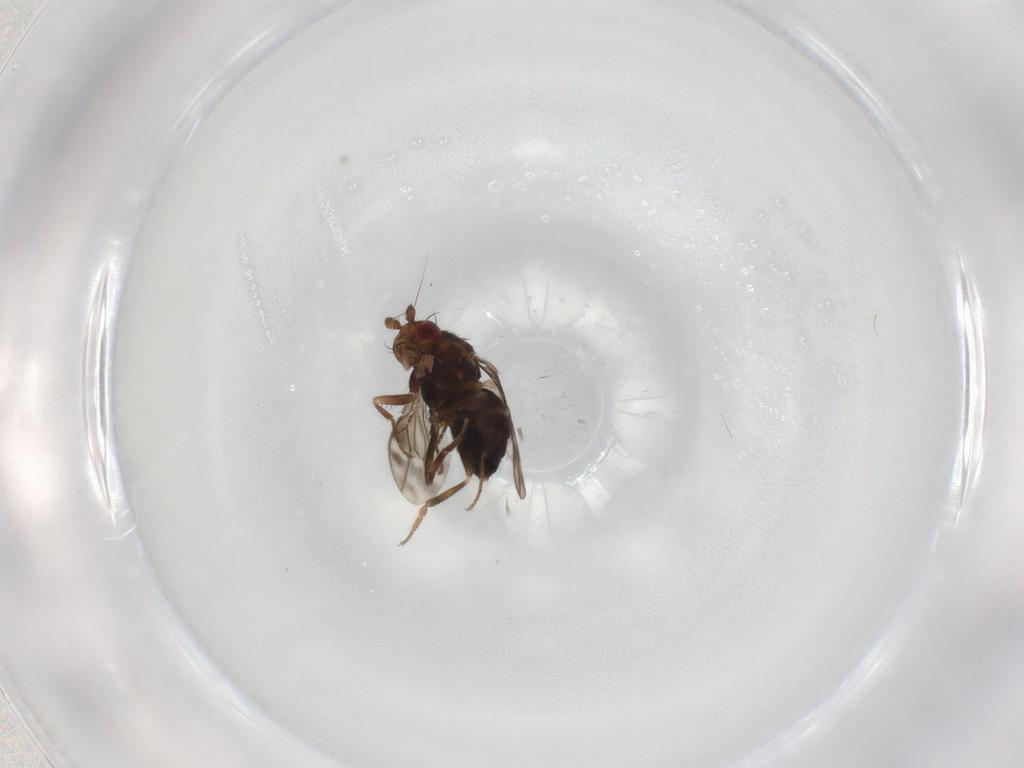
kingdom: Animalia
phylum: Arthropoda
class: Insecta
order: Diptera
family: Sphaeroceridae
